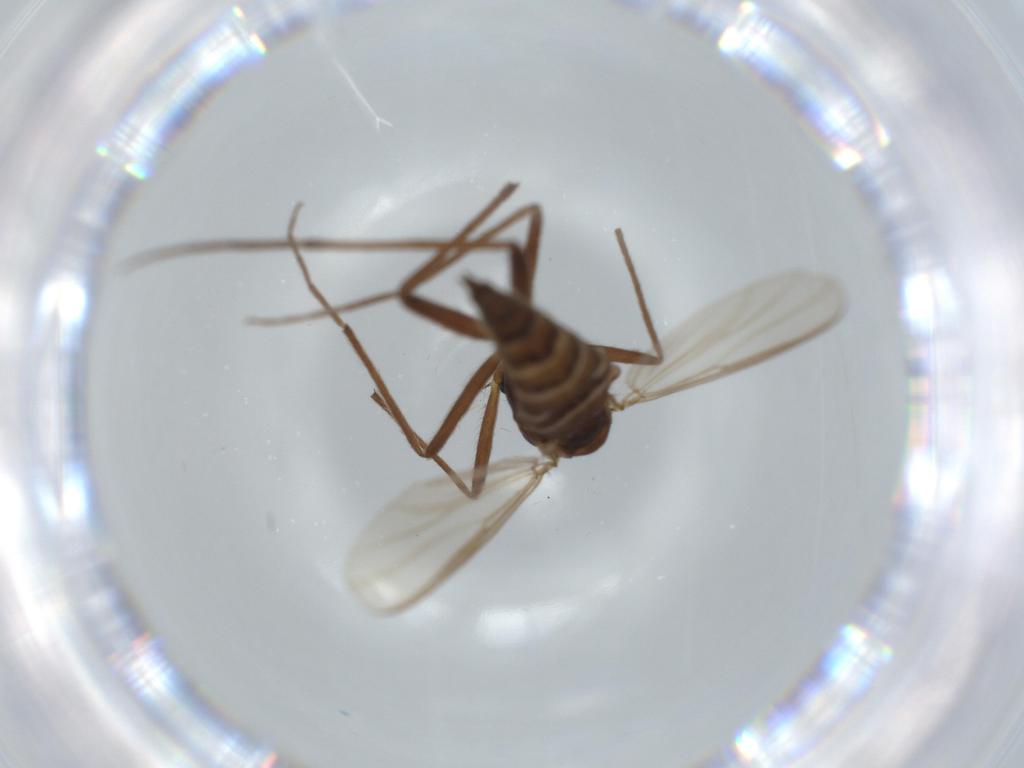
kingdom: Animalia
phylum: Arthropoda
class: Insecta
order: Diptera
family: Chironomidae
